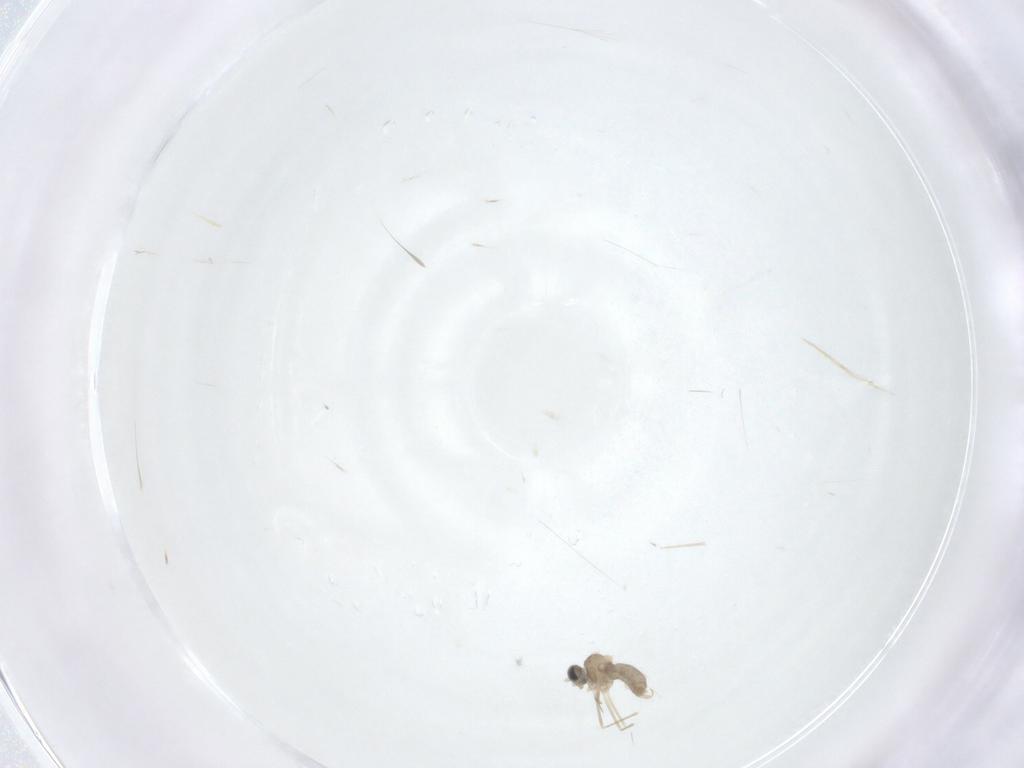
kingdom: Animalia
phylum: Arthropoda
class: Insecta
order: Diptera
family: Cecidomyiidae
